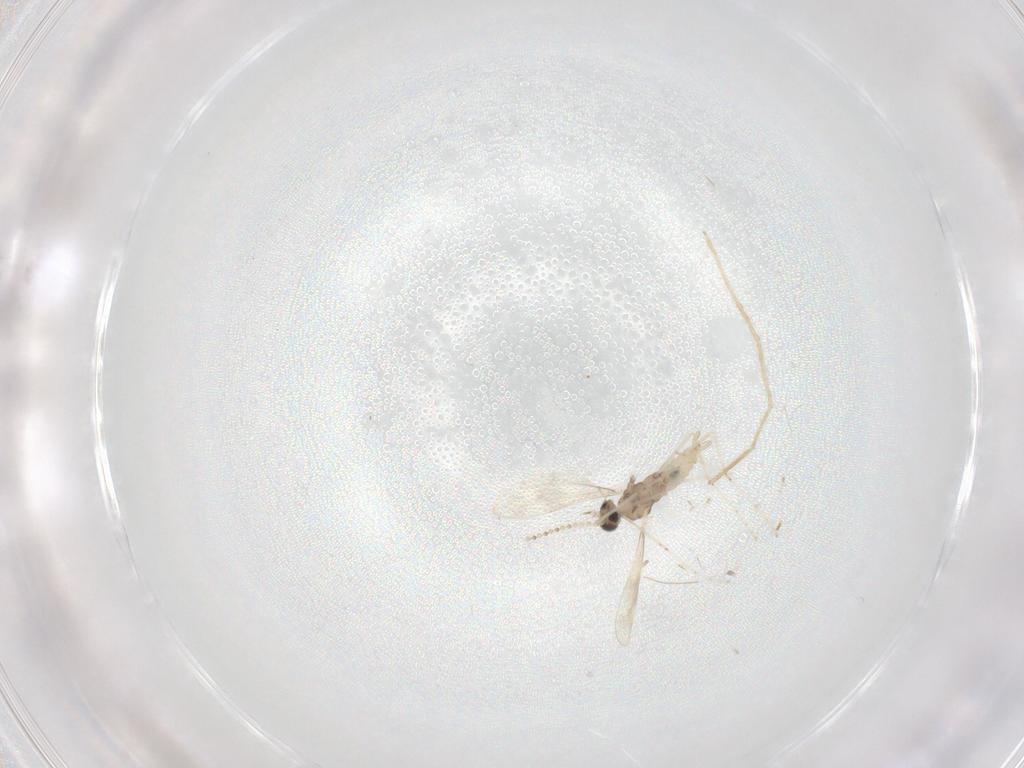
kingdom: Animalia
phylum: Arthropoda
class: Insecta
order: Diptera
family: Cecidomyiidae
